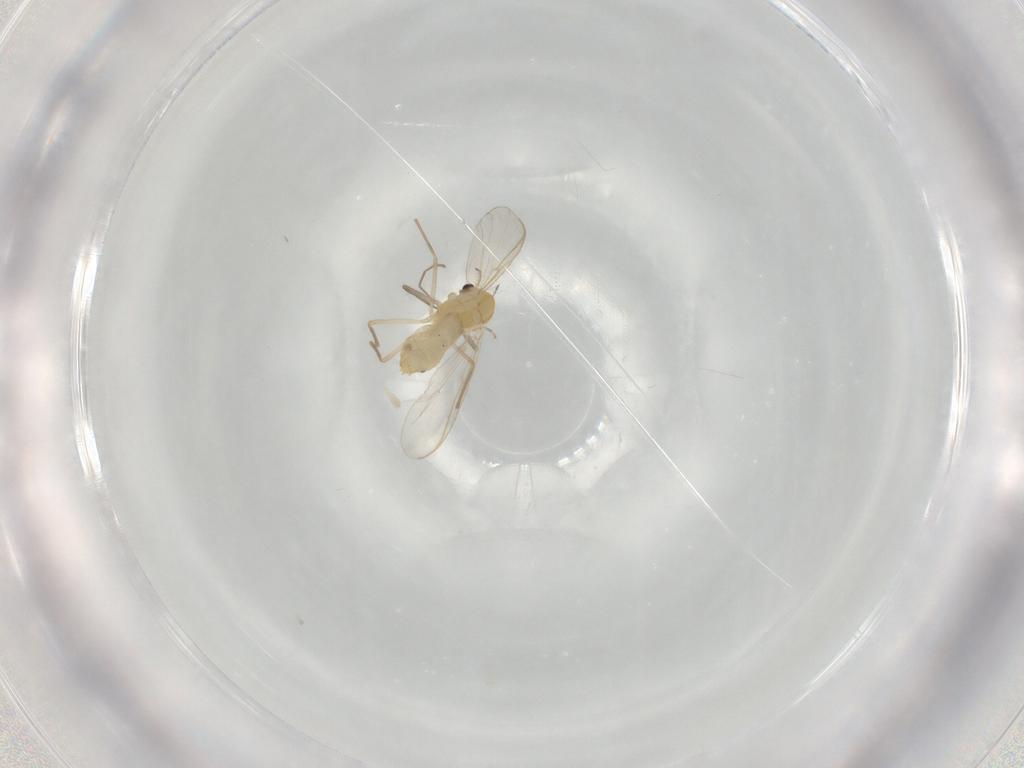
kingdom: Animalia
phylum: Arthropoda
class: Insecta
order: Diptera
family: Chironomidae
